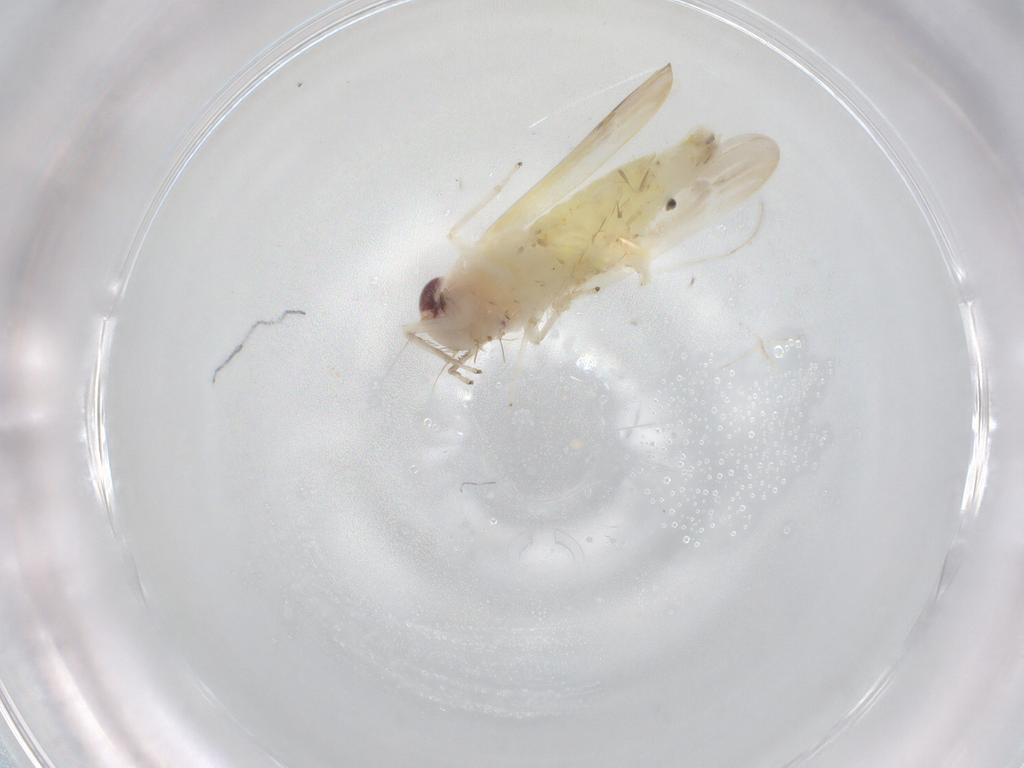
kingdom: Animalia
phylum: Arthropoda
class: Insecta
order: Hemiptera
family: Cicadellidae
